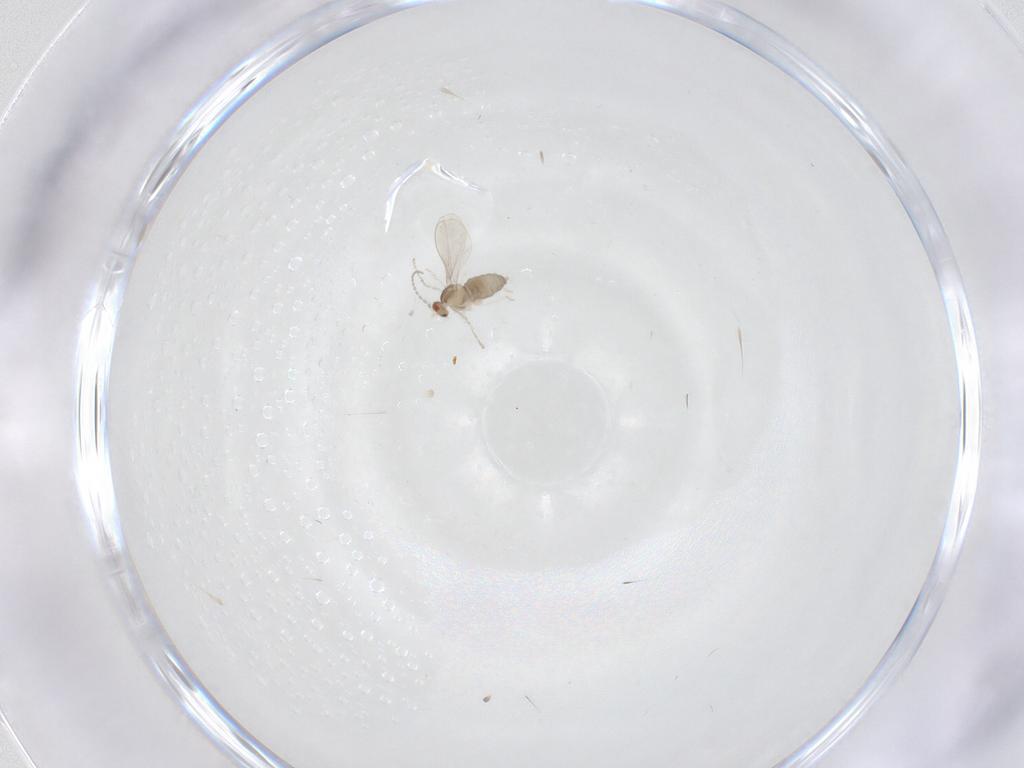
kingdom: Animalia
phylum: Arthropoda
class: Insecta
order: Diptera
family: Cecidomyiidae
